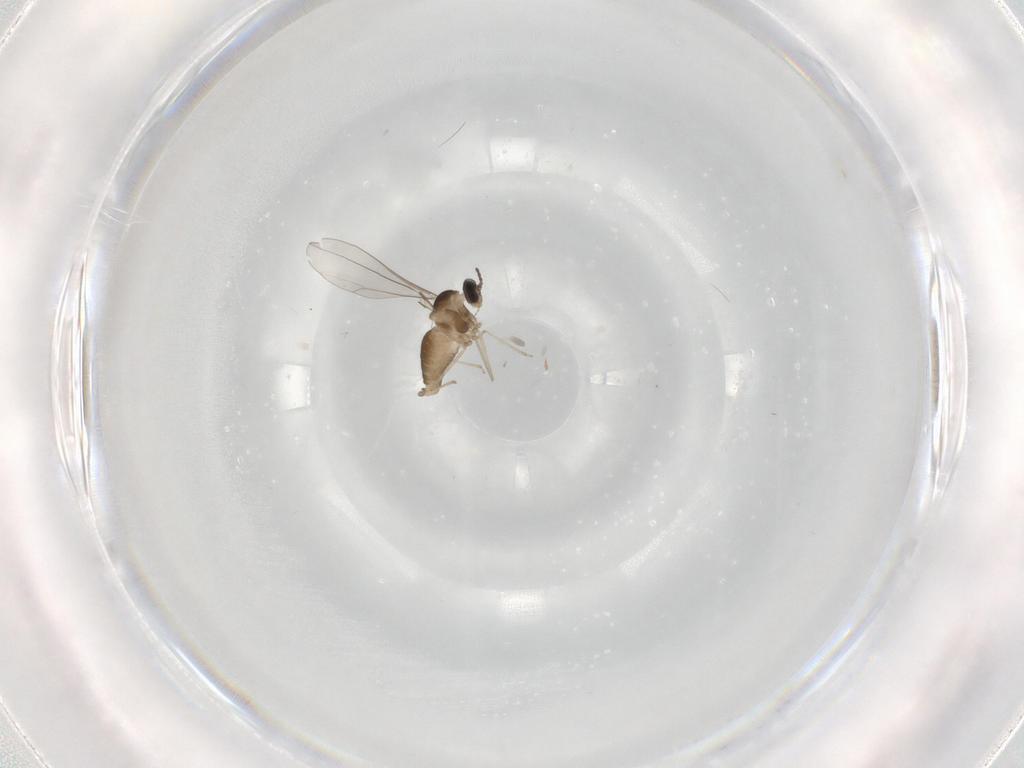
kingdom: Animalia
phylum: Arthropoda
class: Insecta
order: Diptera
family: Cecidomyiidae
